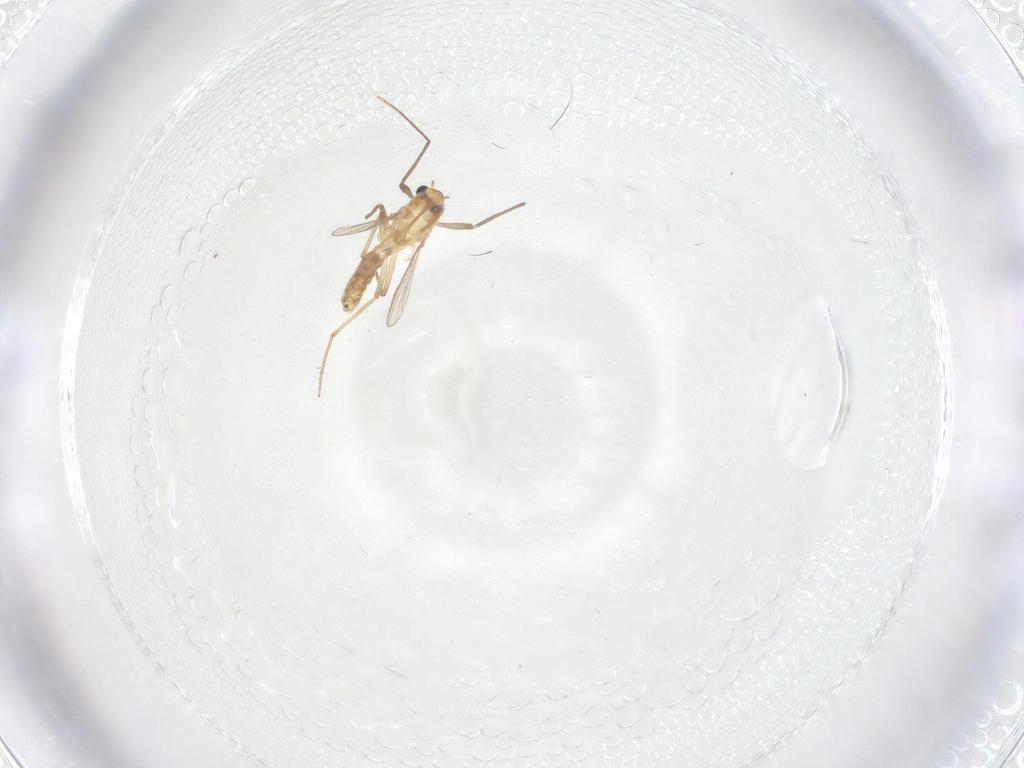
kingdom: Animalia
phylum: Arthropoda
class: Insecta
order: Diptera
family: Chironomidae
